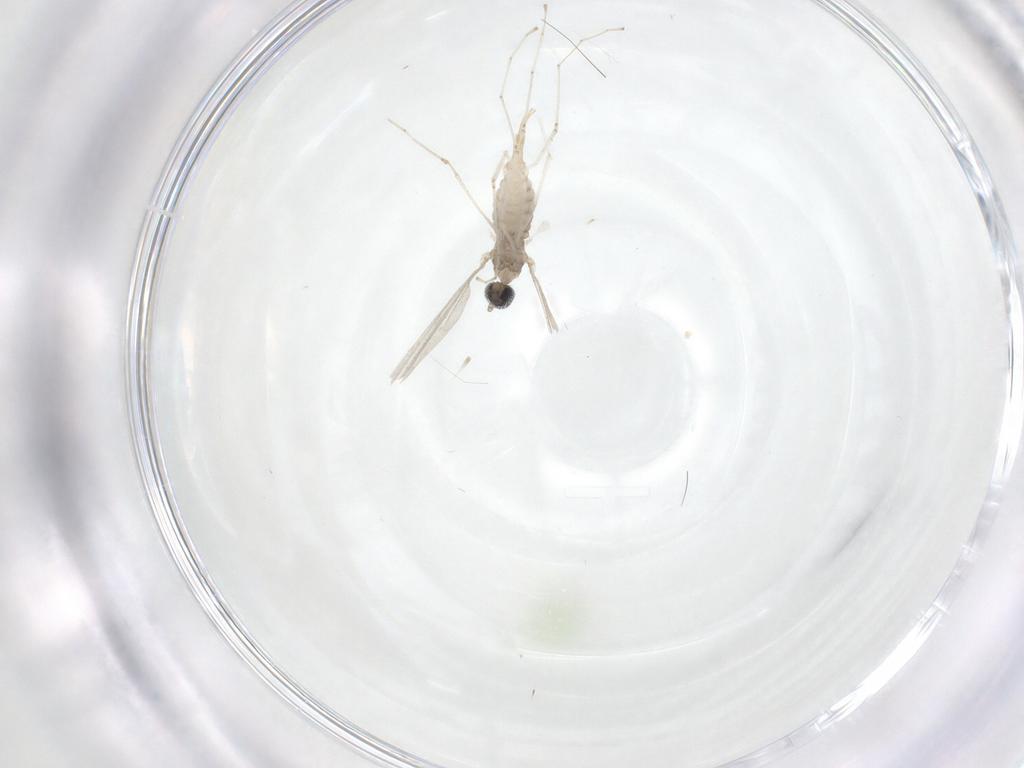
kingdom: Animalia
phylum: Arthropoda
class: Insecta
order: Diptera
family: Cecidomyiidae
